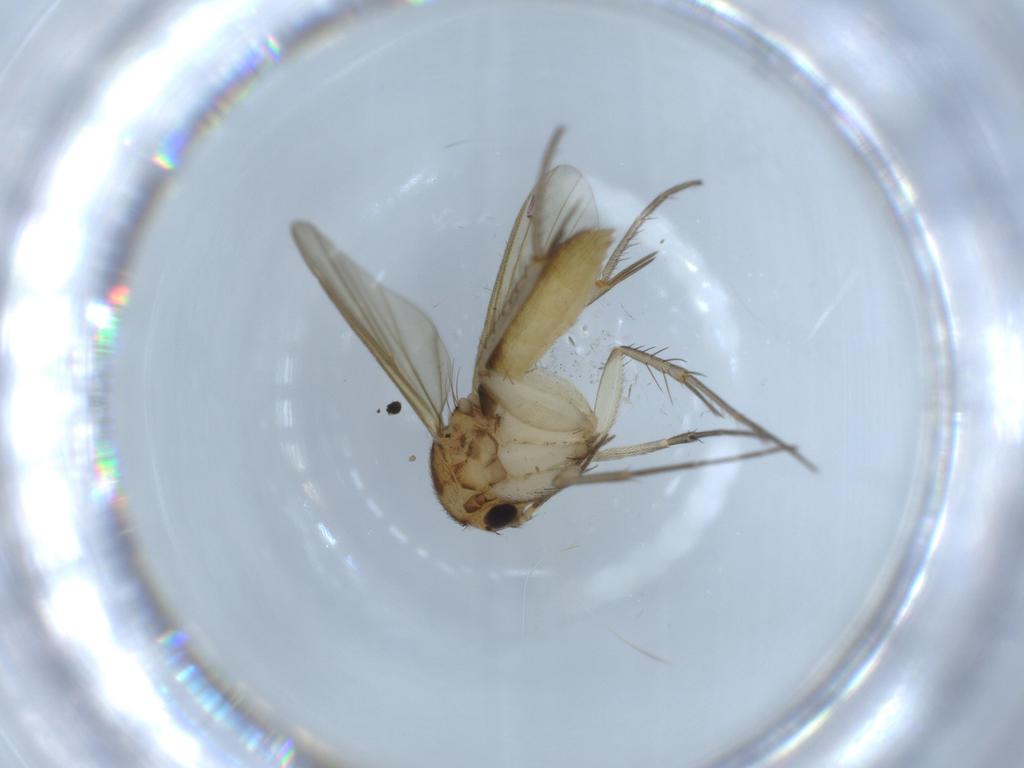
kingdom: Animalia
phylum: Arthropoda
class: Insecta
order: Diptera
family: Mycetophilidae
